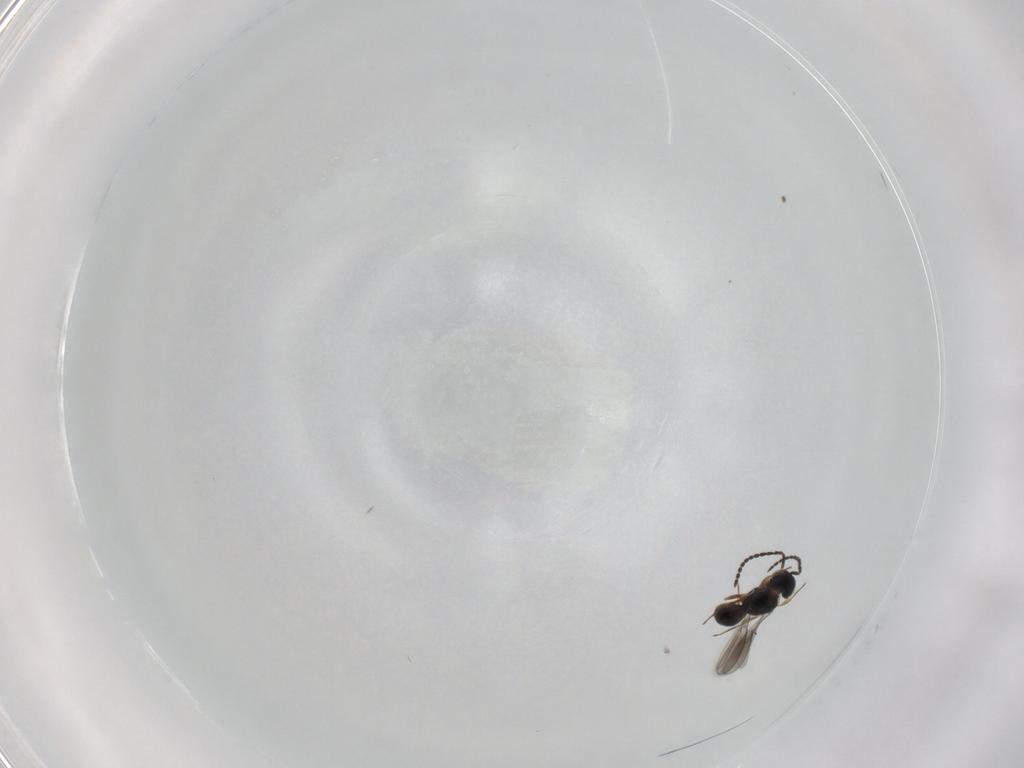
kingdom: Animalia
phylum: Arthropoda
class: Insecta
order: Hymenoptera
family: Scelionidae
